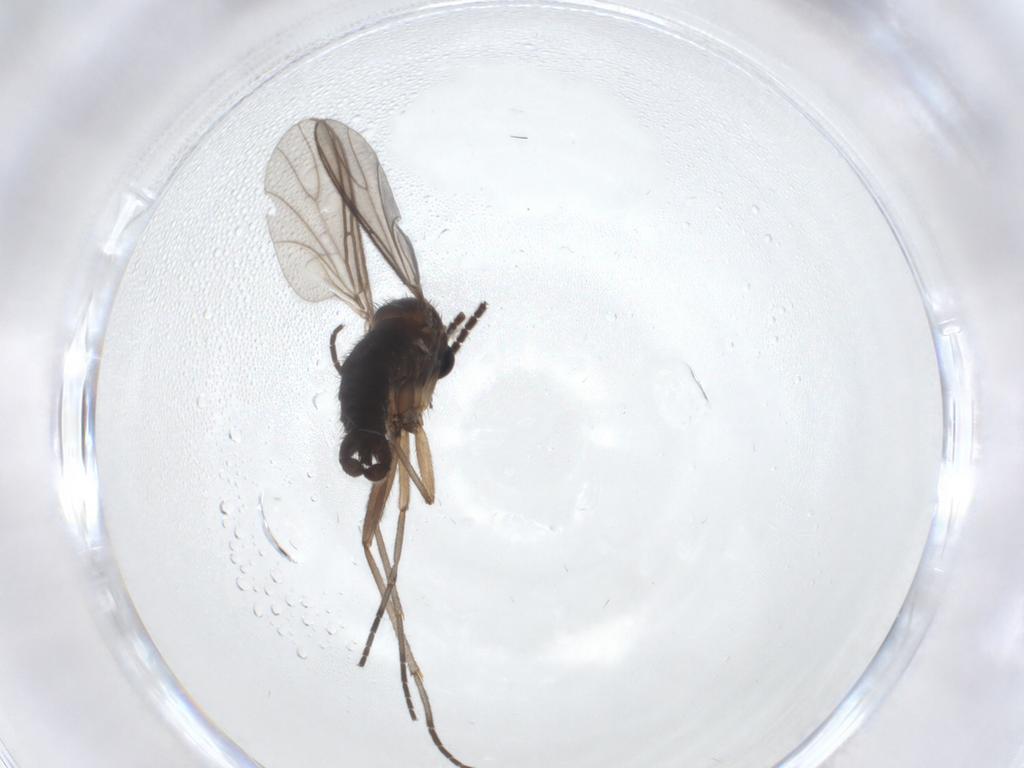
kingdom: Animalia
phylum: Arthropoda
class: Insecta
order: Diptera
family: Sciaridae
